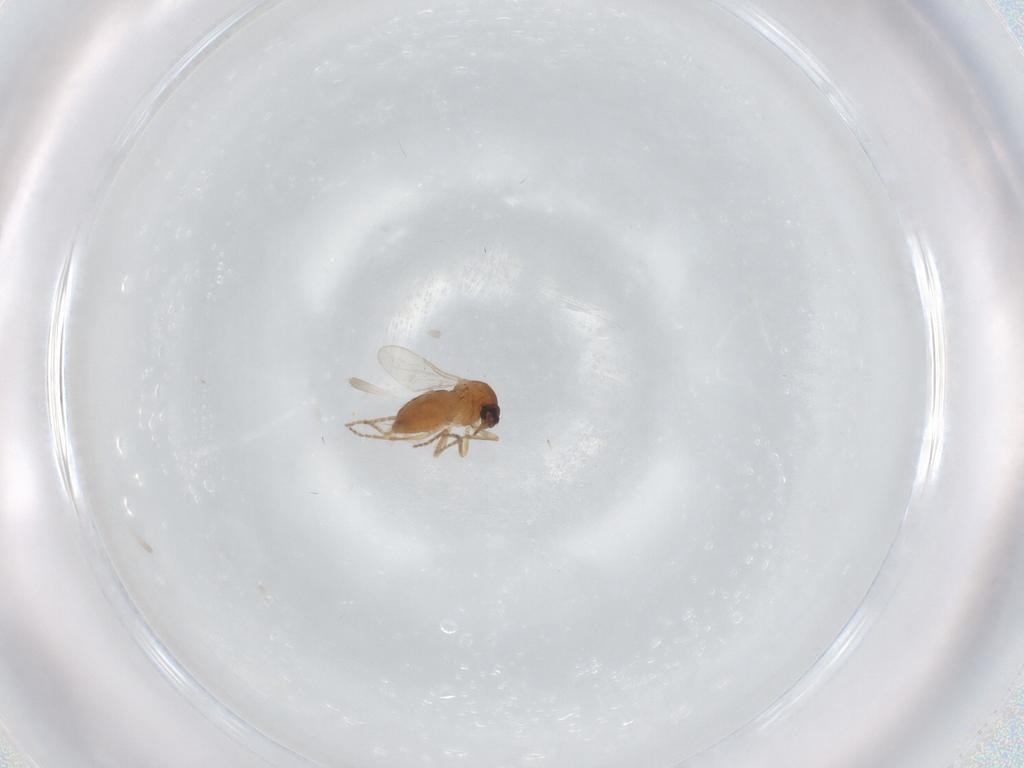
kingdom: Animalia
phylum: Arthropoda
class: Insecta
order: Diptera
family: Ceratopogonidae
